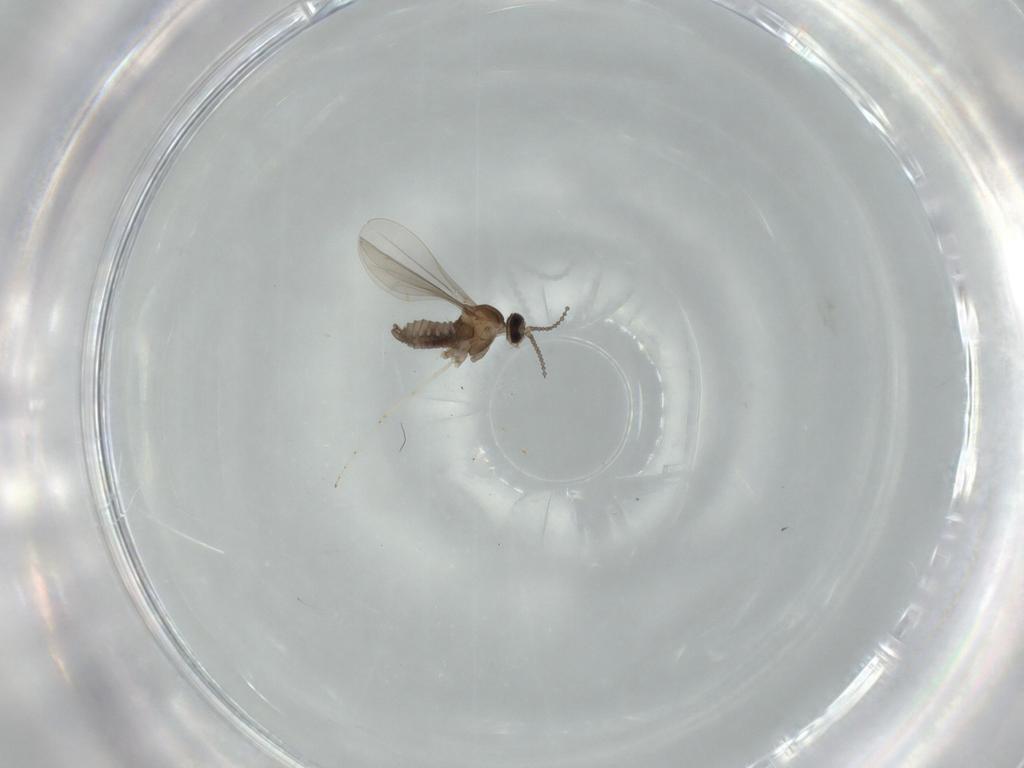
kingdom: Animalia
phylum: Arthropoda
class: Insecta
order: Diptera
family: Cecidomyiidae
